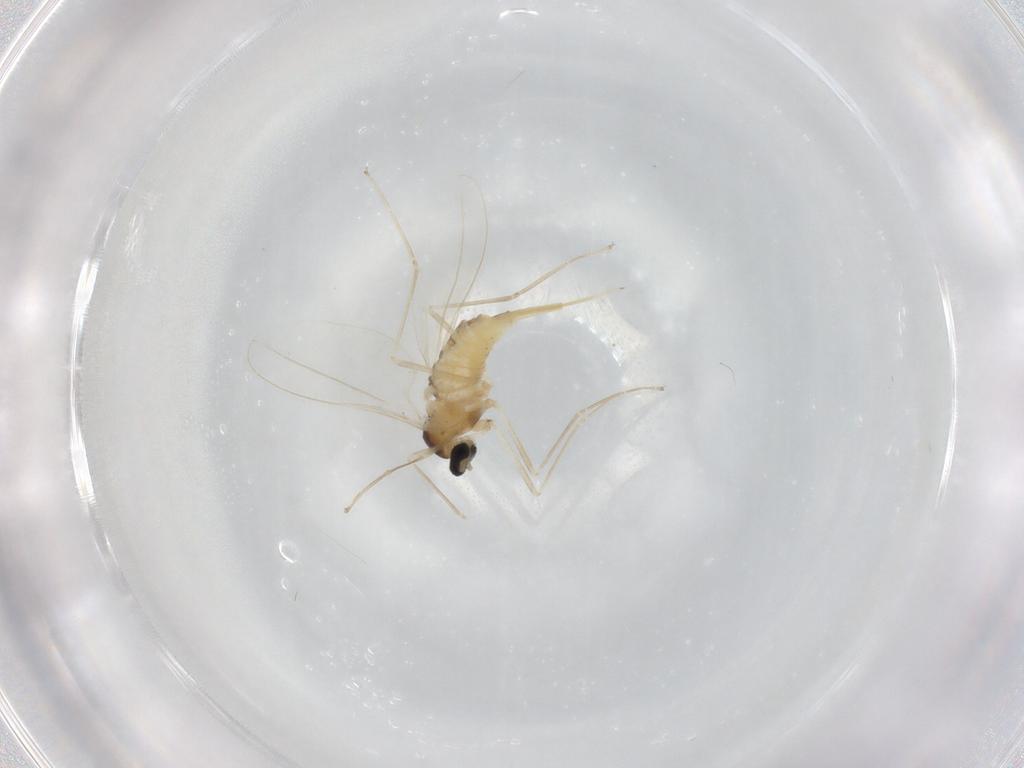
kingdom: Animalia
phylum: Arthropoda
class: Insecta
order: Diptera
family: Cecidomyiidae
